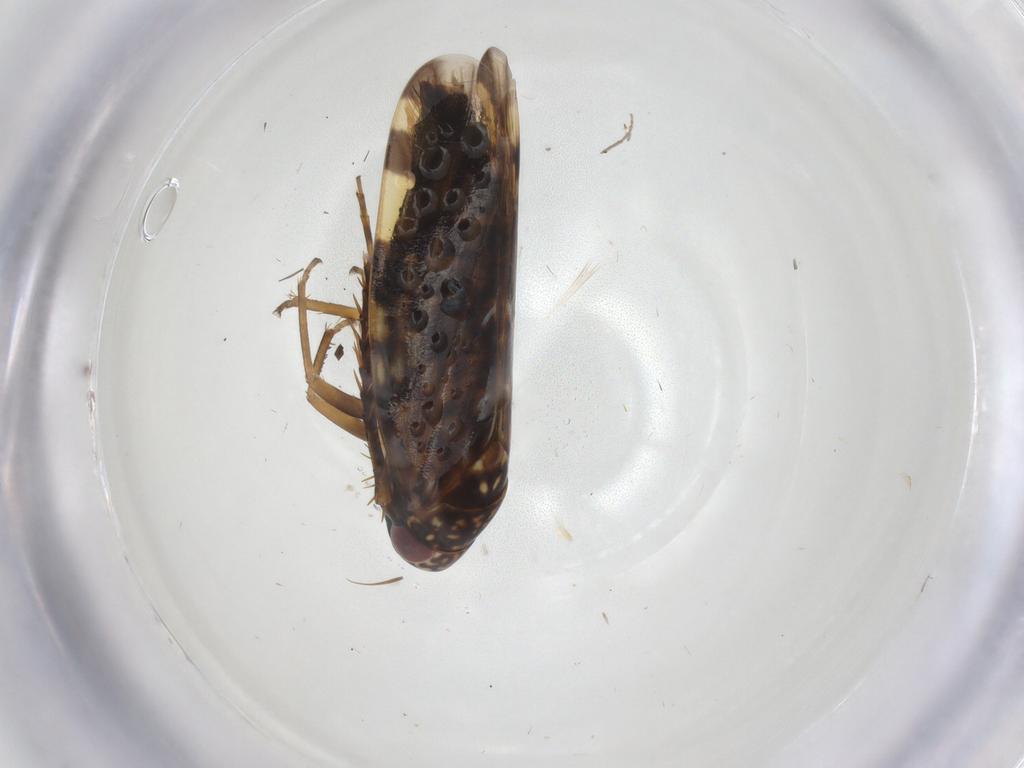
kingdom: Animalia
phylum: Arthropoda
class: Insecta
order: Hemiptera
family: Cicadellidae
